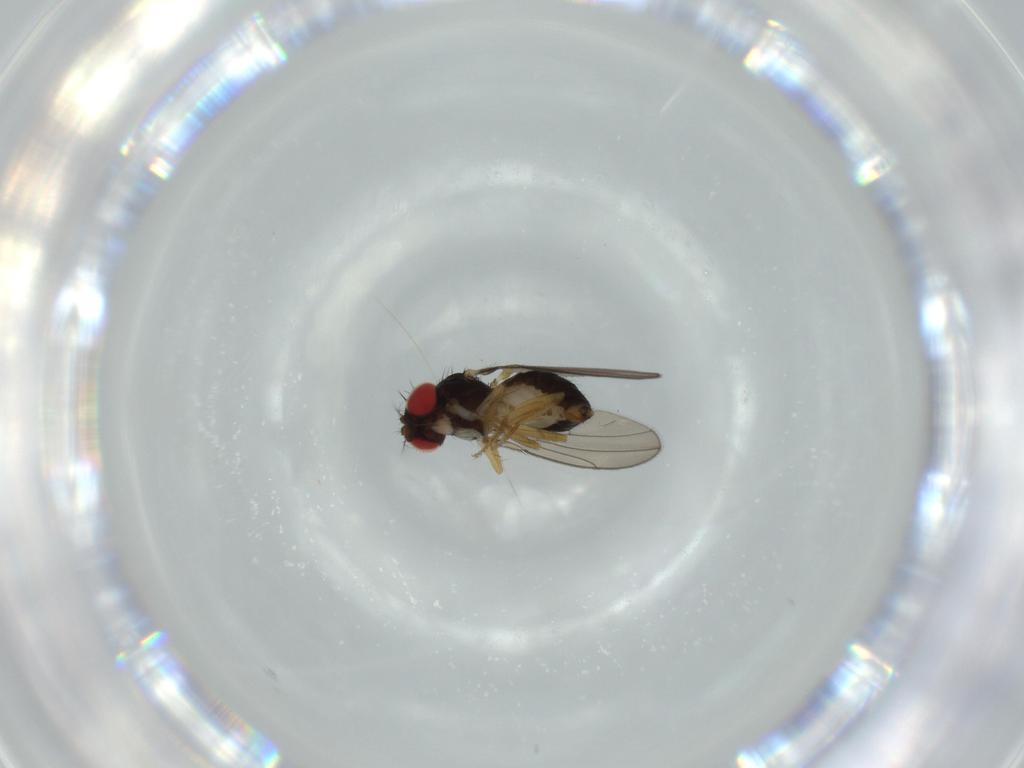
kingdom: Animalia
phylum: Arthropoda
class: Insecta
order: Diptera
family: Drosophilidae
